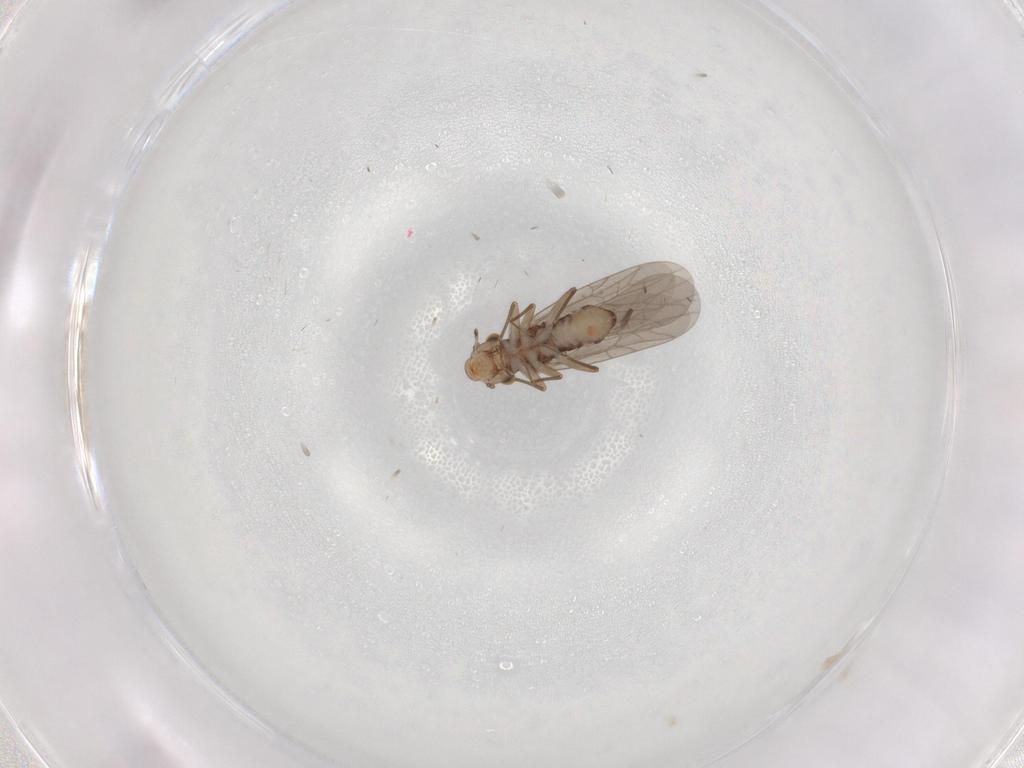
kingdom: Animalia
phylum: Arthropoda
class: Insecta
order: Psocodea
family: Lepidopsocidae
